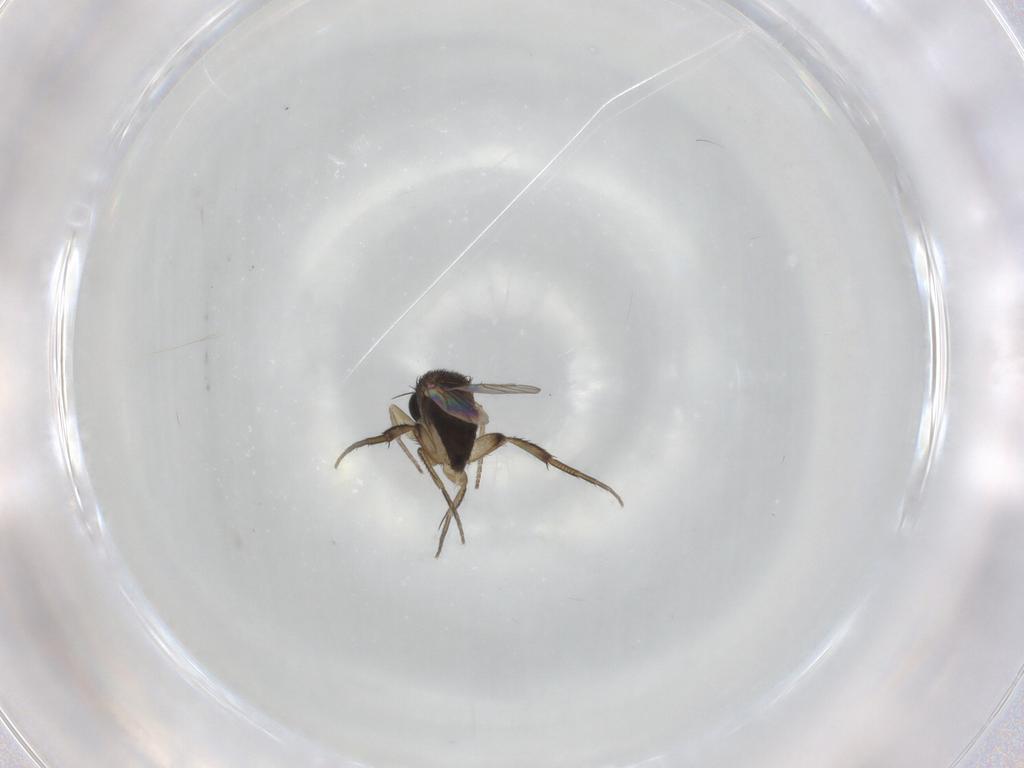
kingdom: Animalia
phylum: Arthropoda
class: Insecta
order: Diptera
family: Phoridae
